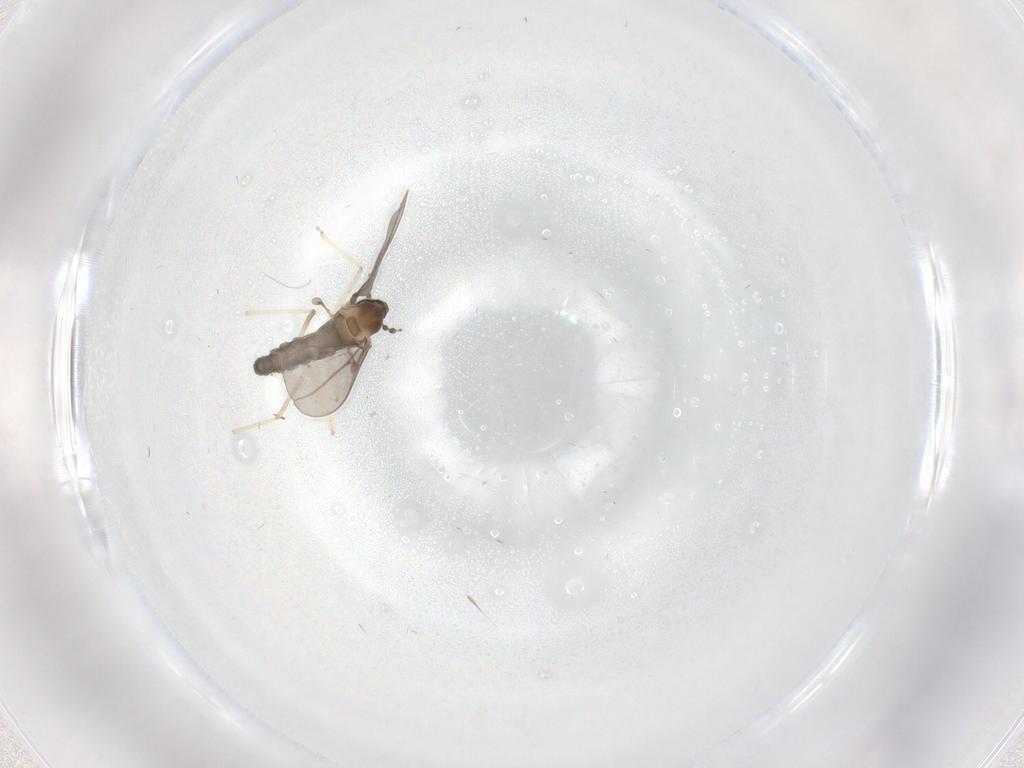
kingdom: Animalia
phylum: Arthropoda
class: Insecta
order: Diptera
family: Cecidomyiidae
